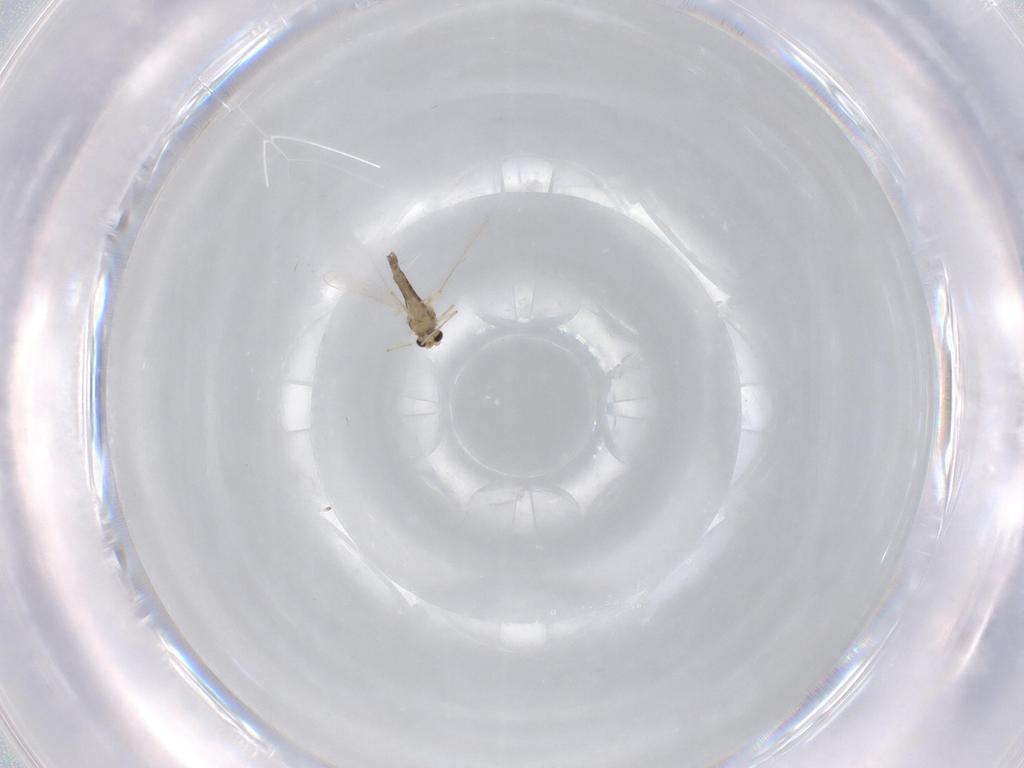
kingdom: Animalia
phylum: Arthropoda
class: Insecta
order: Diptera
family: Chironomidae
